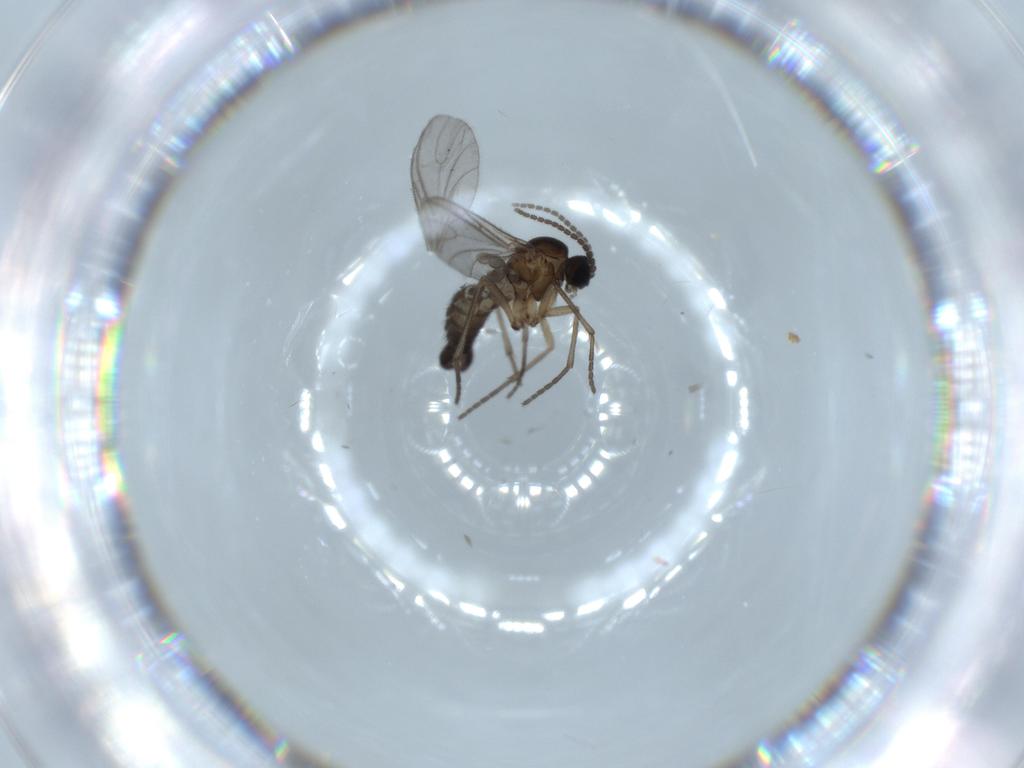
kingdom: Animalia
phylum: Arthropoda
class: Insecta
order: Diptera
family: Sciaridae
